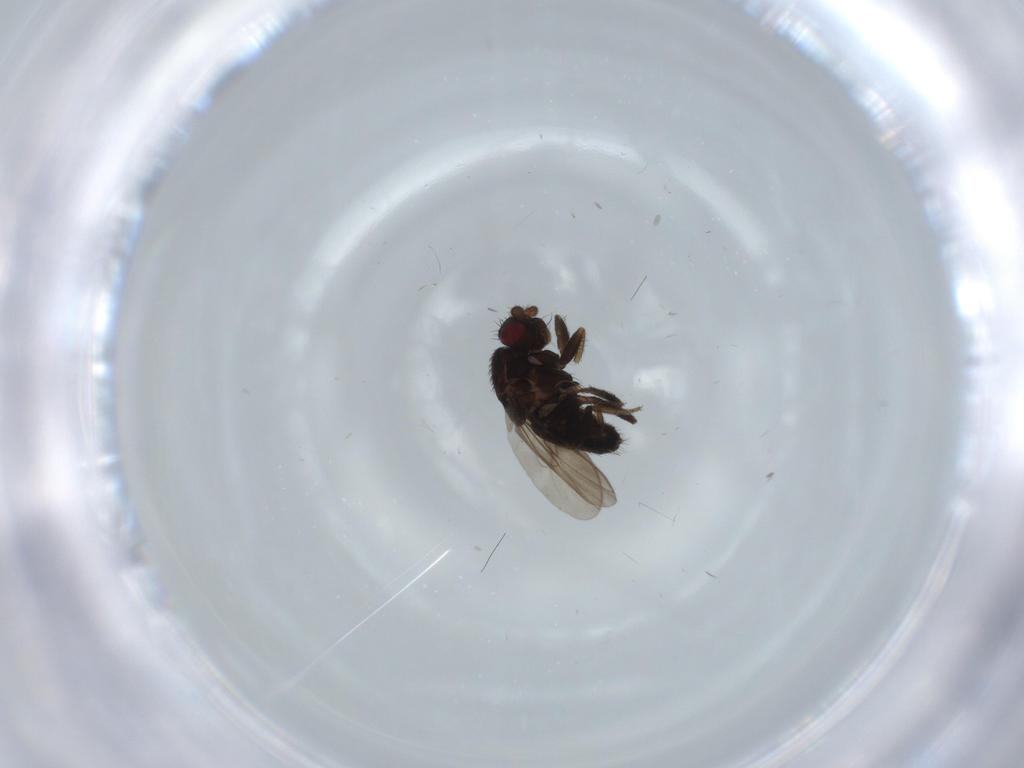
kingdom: Animalia
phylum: Arthropoda
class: Insecta
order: Diptera
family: Sphaeroceridae
